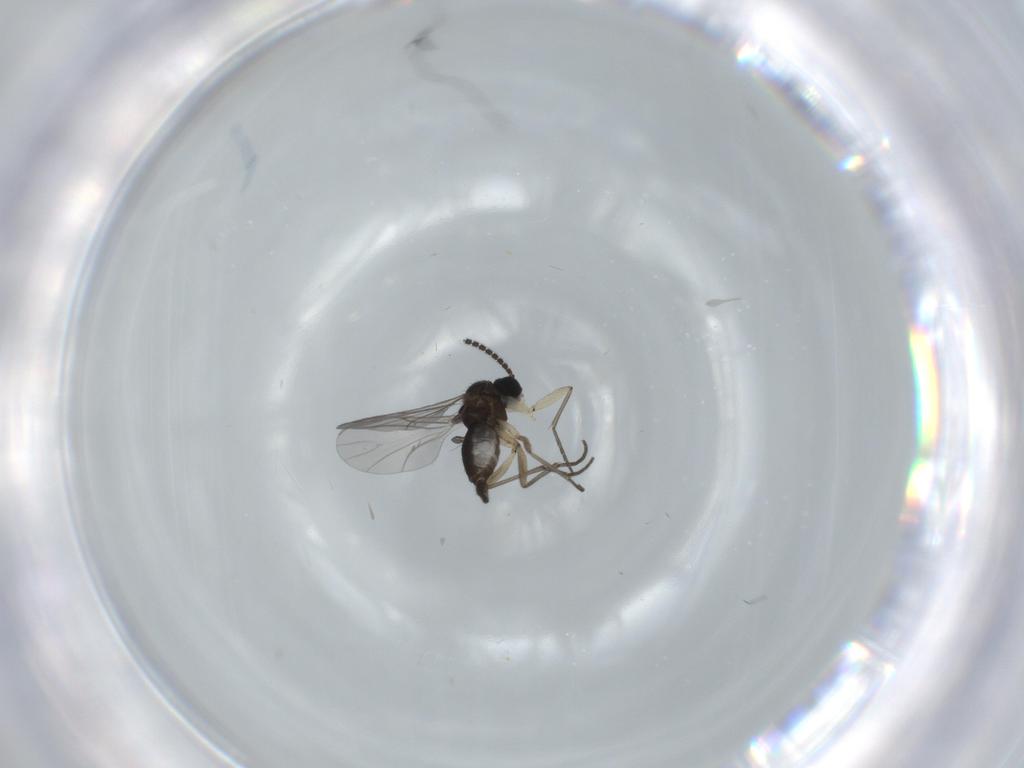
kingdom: Animalia
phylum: Arthropoda
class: Insecta
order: Diptera
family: Sciaridae
